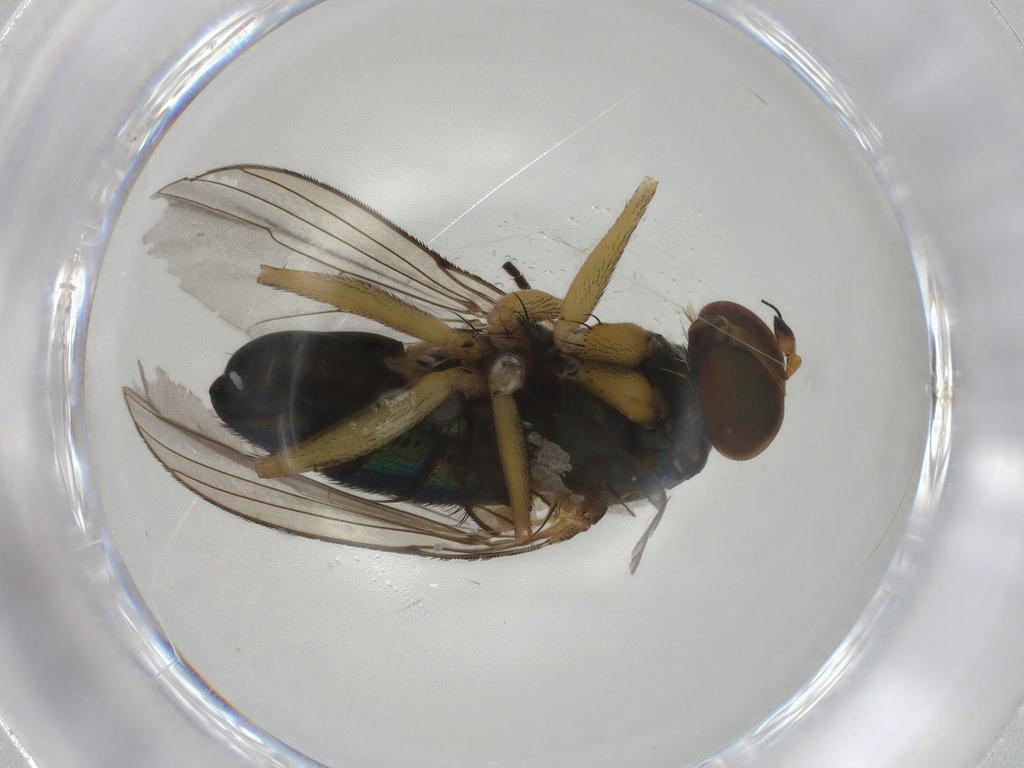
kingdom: Animalia
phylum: Arthropoda
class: Insecta
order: Diptera
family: Dolichopodidae
